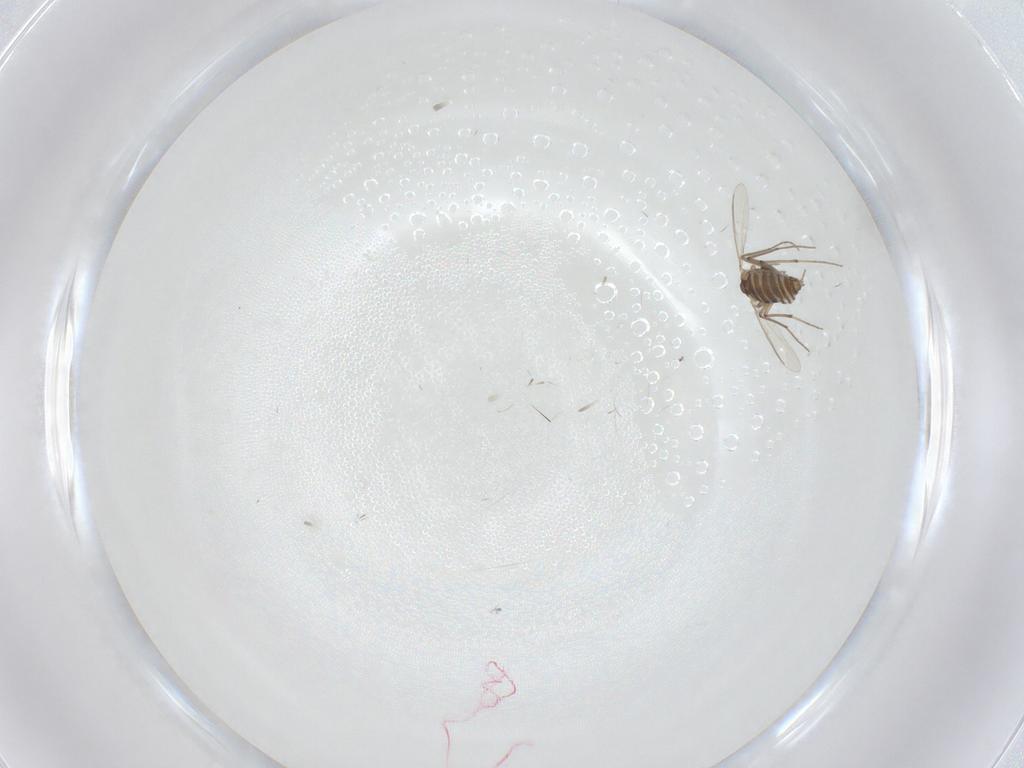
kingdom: Animalia
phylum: Arthropoda
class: Insecta
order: Diptera
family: Chironomidae
